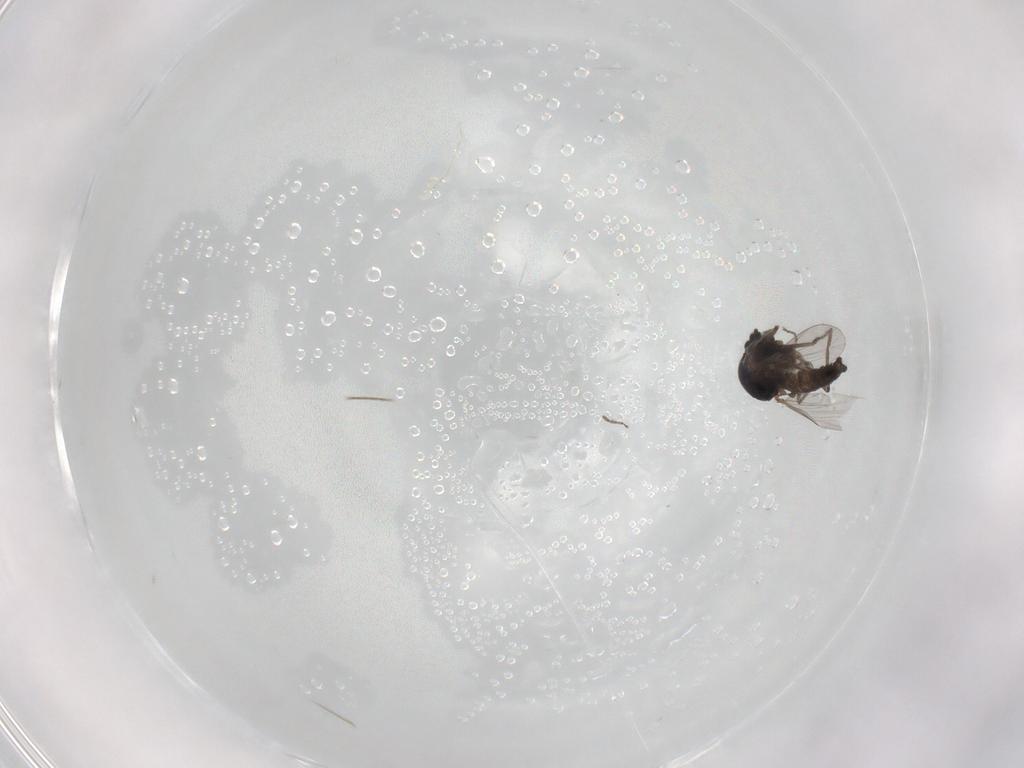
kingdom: Animalia
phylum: Arthropoda
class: Insecta
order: Diptera
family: Ceratopogonidae
